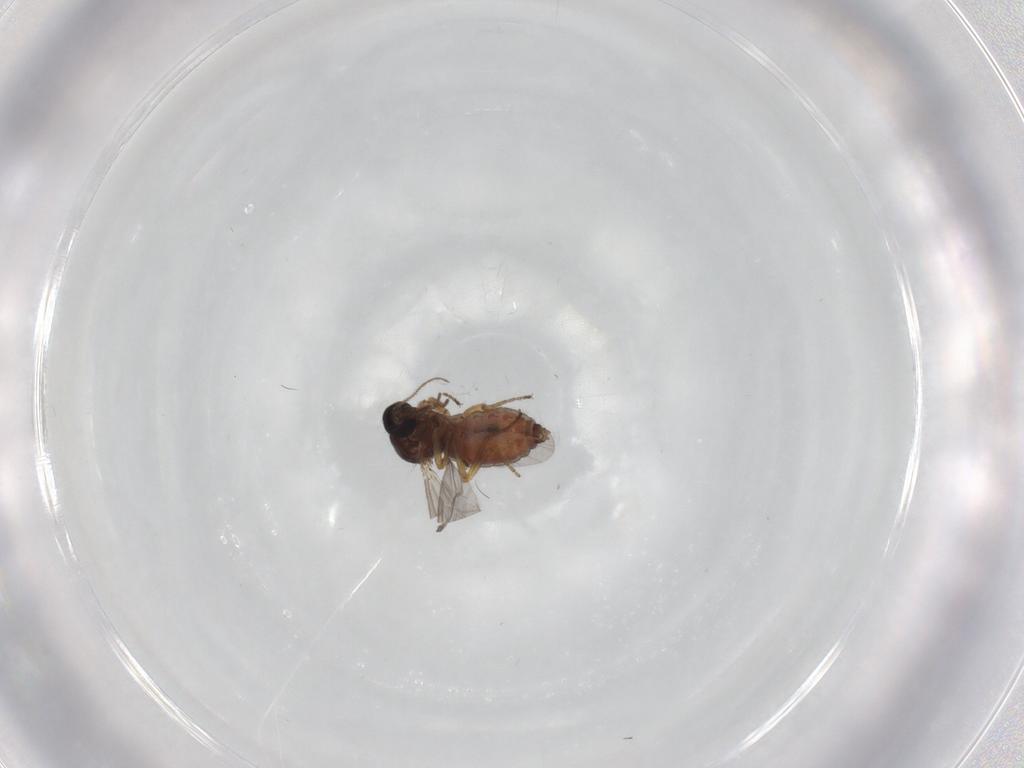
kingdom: Animalia
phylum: Arthropoda
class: Insecta
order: Diptera
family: Ceratopogonidae
